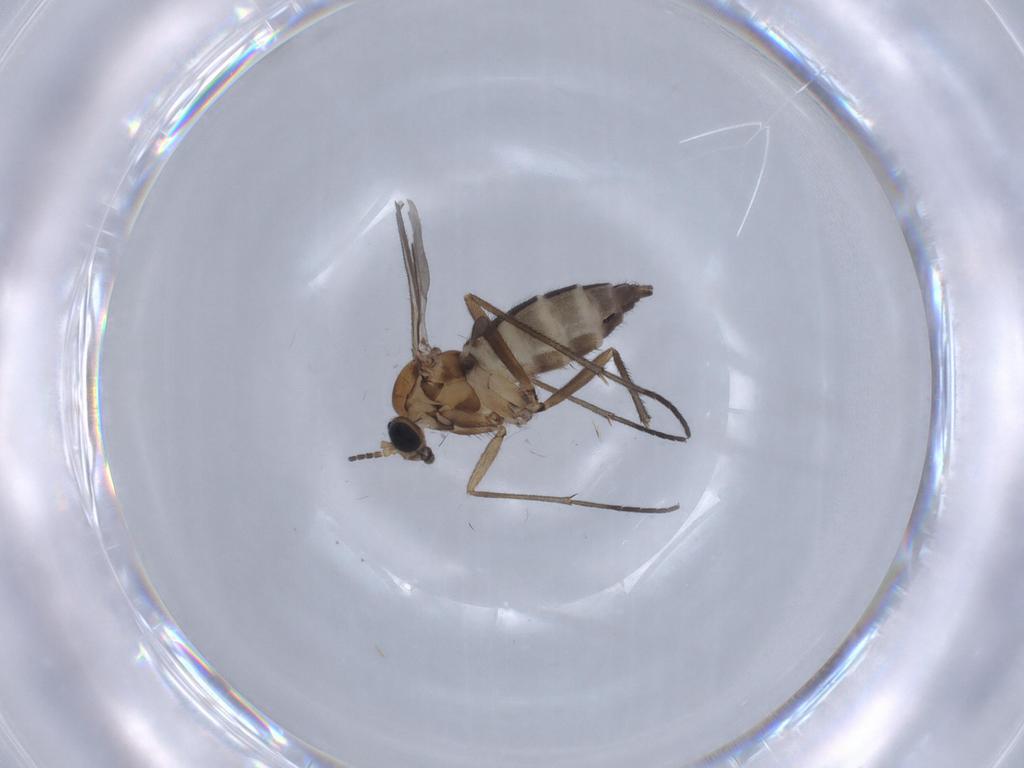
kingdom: Animalia
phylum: Arthropoda
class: Insecta
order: Diptera
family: Sciaridae
